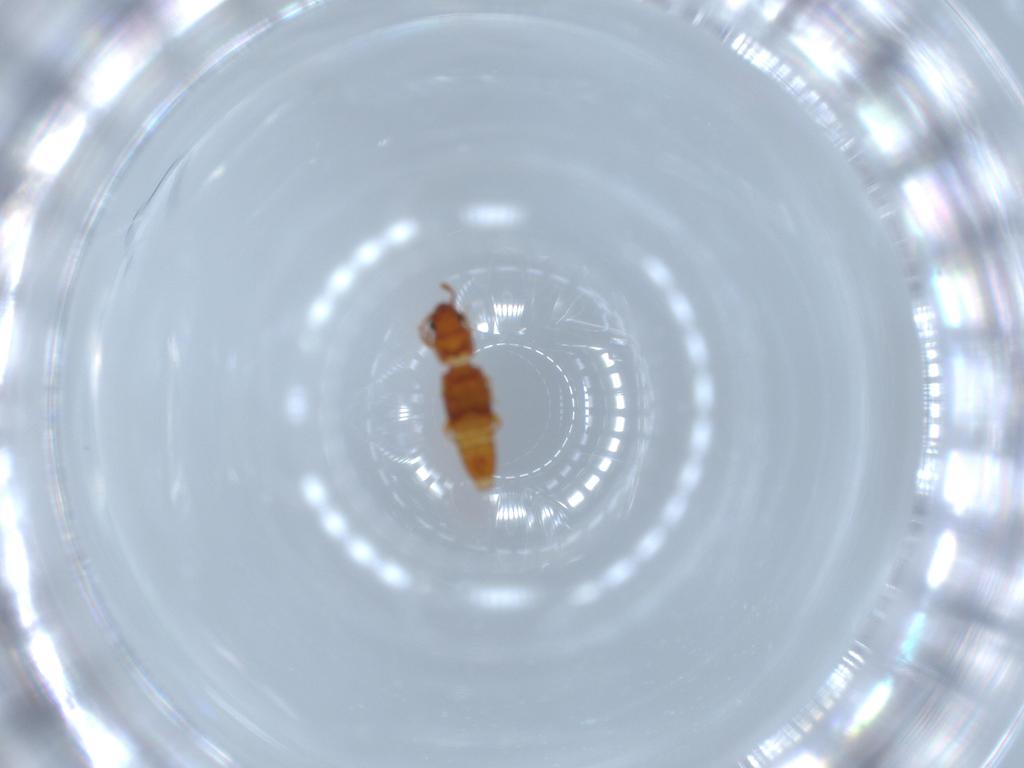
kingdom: Animalia
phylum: Arthropoda
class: Insecta
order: Coleoptera
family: Smicripidae
